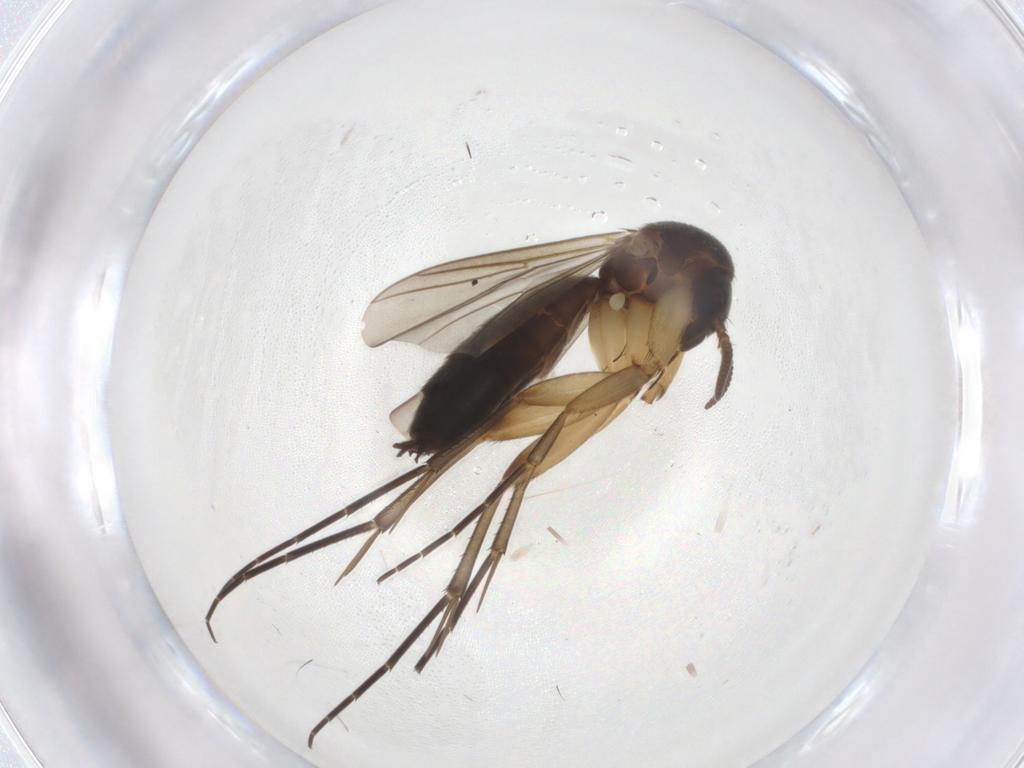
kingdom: Animalia
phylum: Arthropoda
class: Insecta
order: Diptera
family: Mycetophilidae
